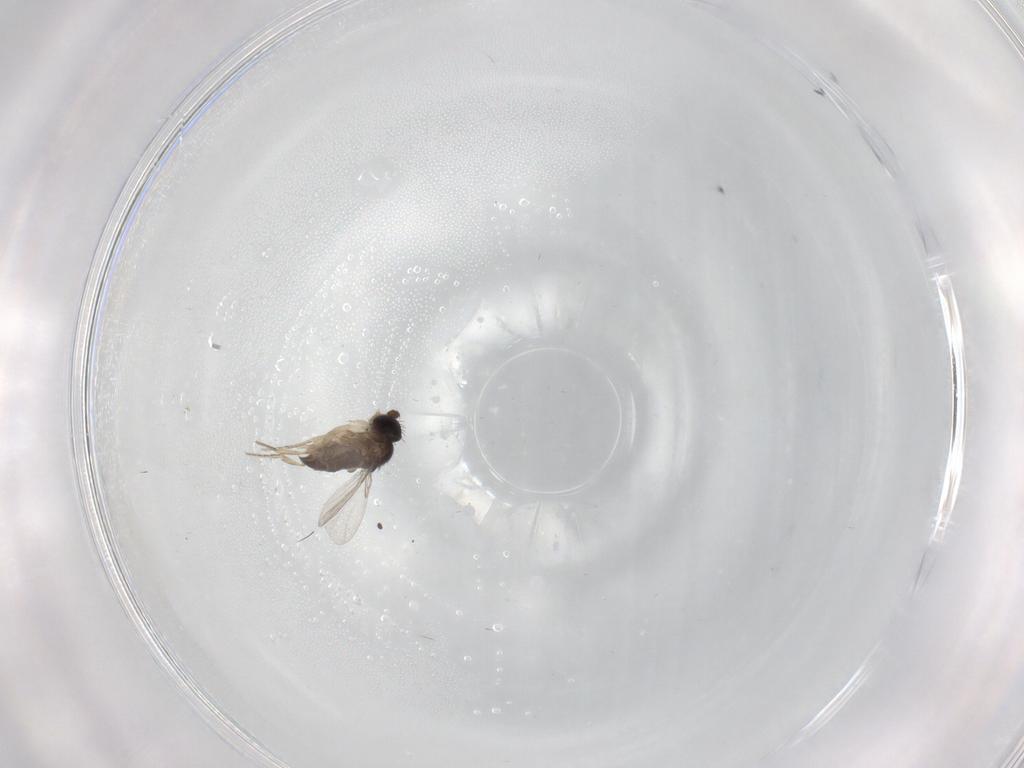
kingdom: Animalia
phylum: Arthropoda
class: Insecta
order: Diptera
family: Phoridae
